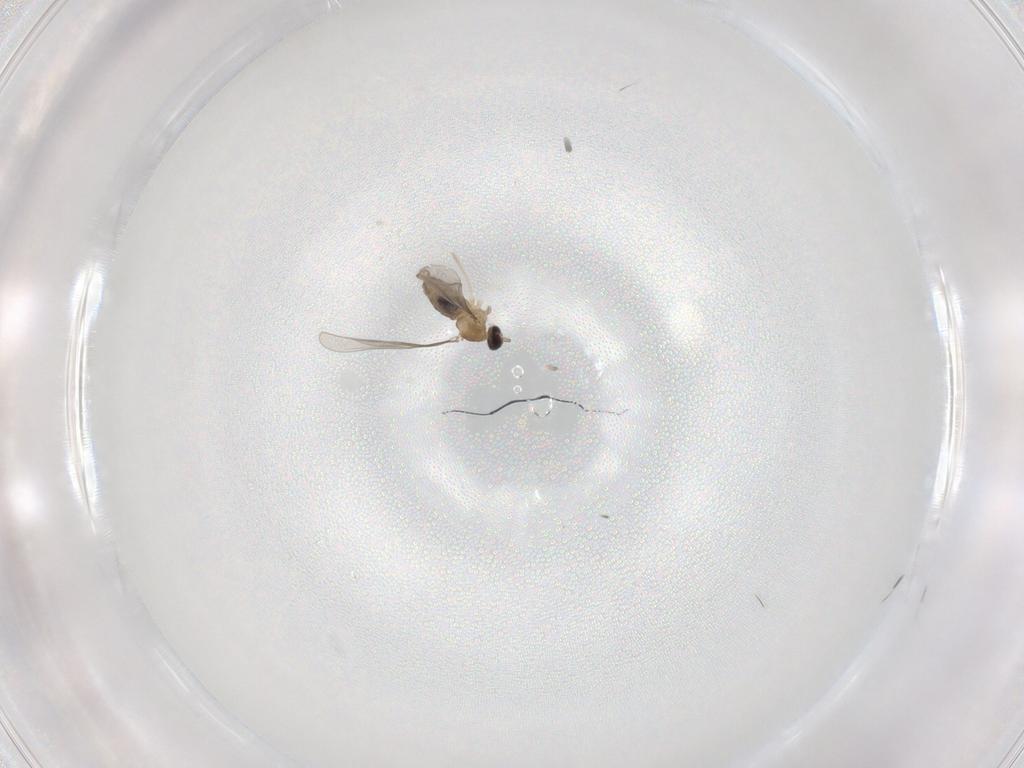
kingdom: Animalia
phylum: Arthropoda
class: Insecta
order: Diptera
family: Cecidomyiidae
